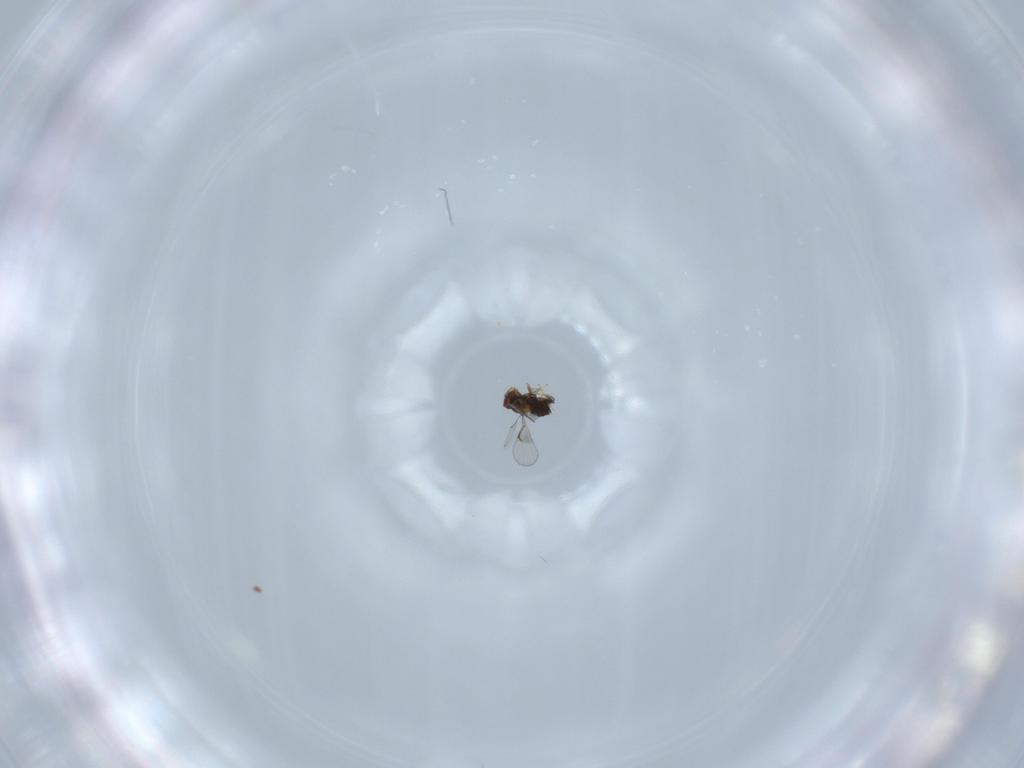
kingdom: Animalia
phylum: Arthropoda
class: Insecta
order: Hymenoptera
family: Trichogrammatidae
